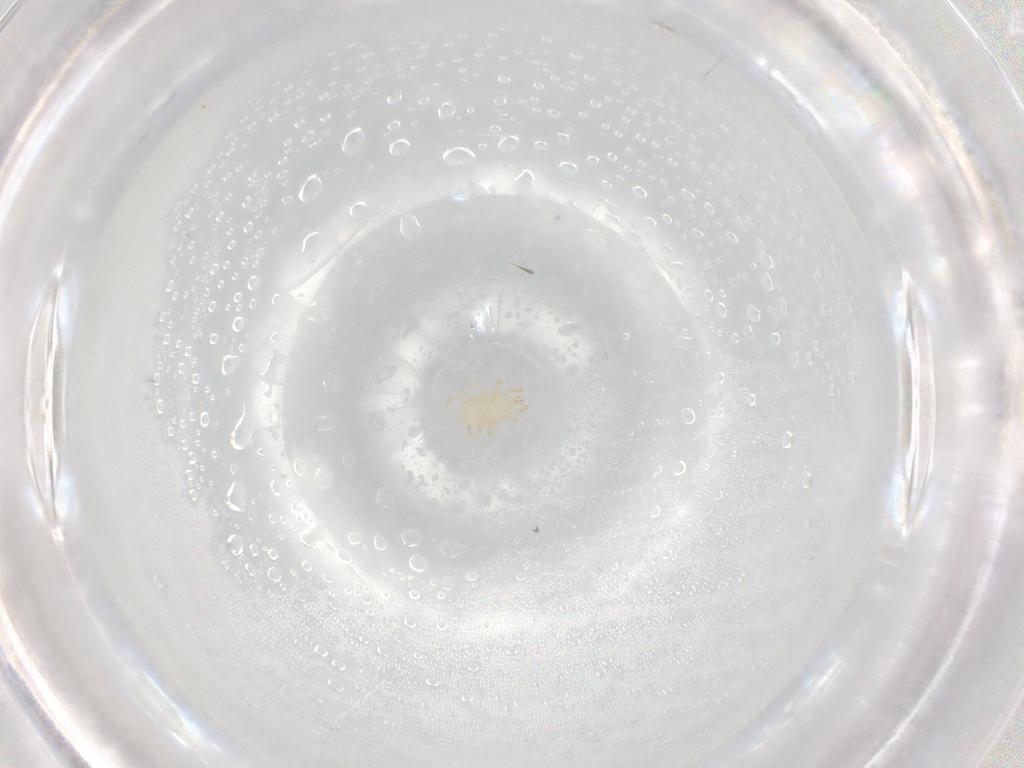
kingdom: Animalia
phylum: Arthropoda
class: Arachnida
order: Mesostigmata
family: Melicharidae
